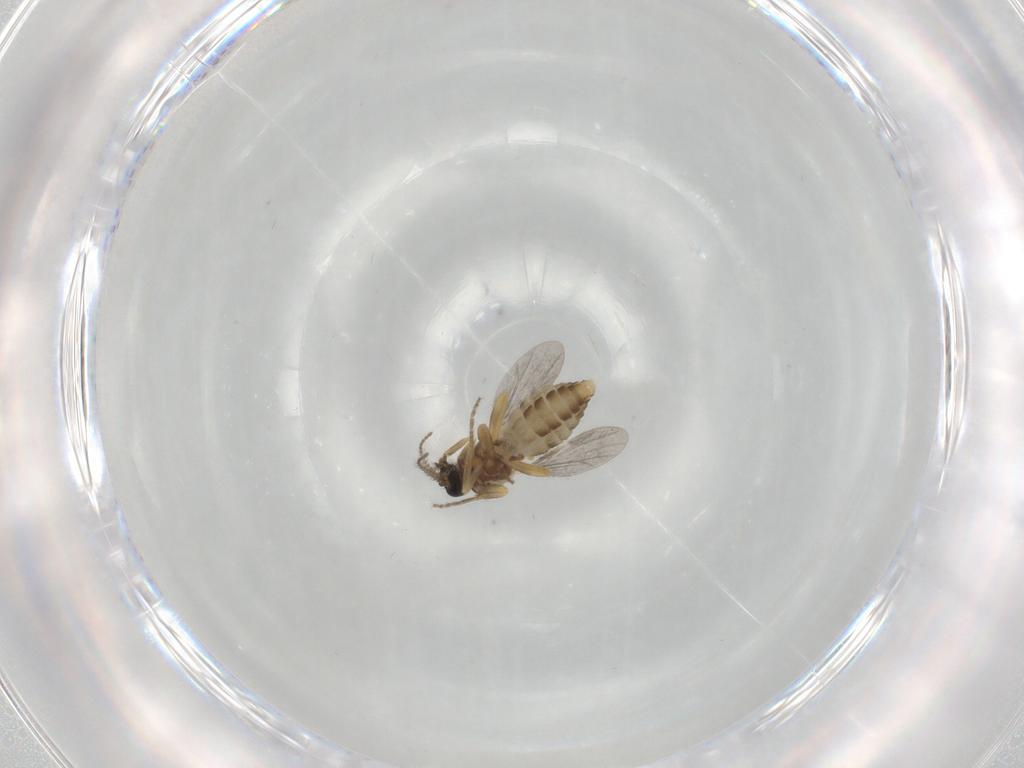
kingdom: Animalia
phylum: Arthropoda
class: Insecta
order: Diptera
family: Ceratopogonidae
